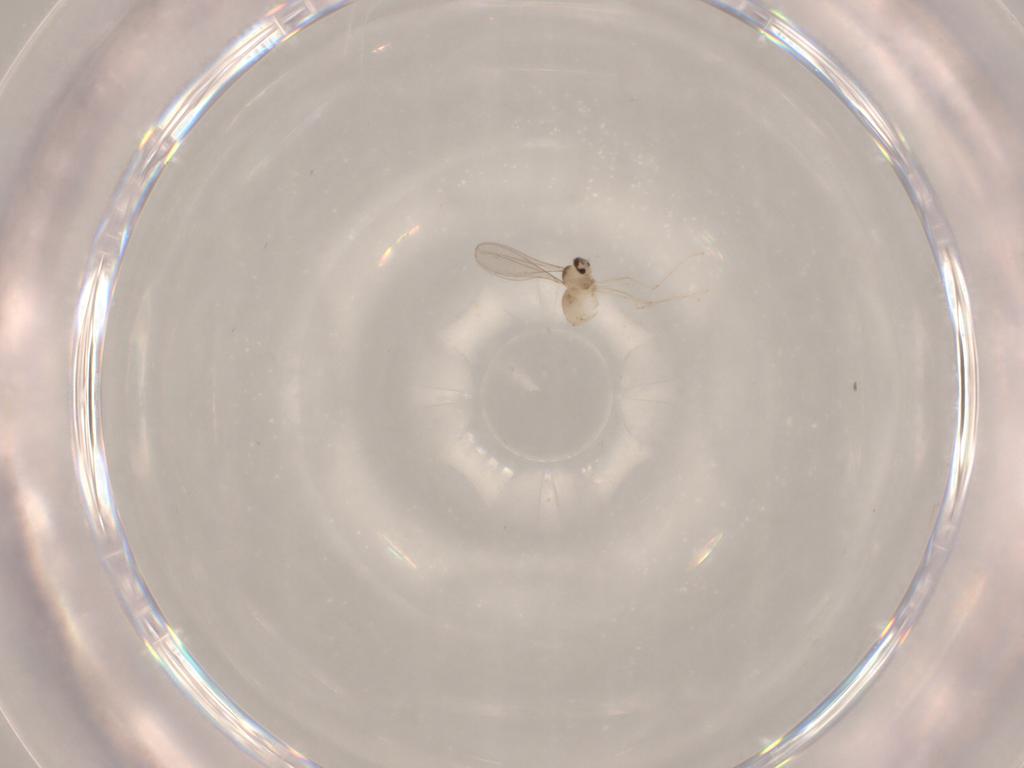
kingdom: Animalia
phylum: Arthropoda
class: Insecta
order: Diptera
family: Cecidomyiidae
